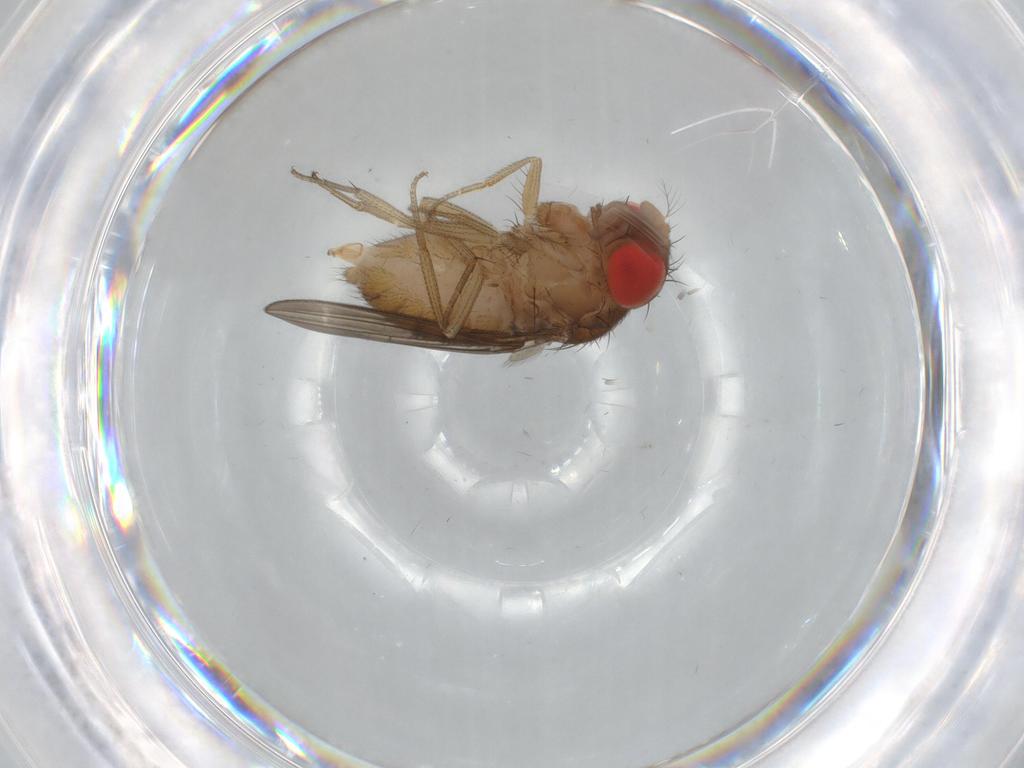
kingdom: Animalia
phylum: Arthropoda
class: Insecta
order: Diptera
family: Drosophilidae
